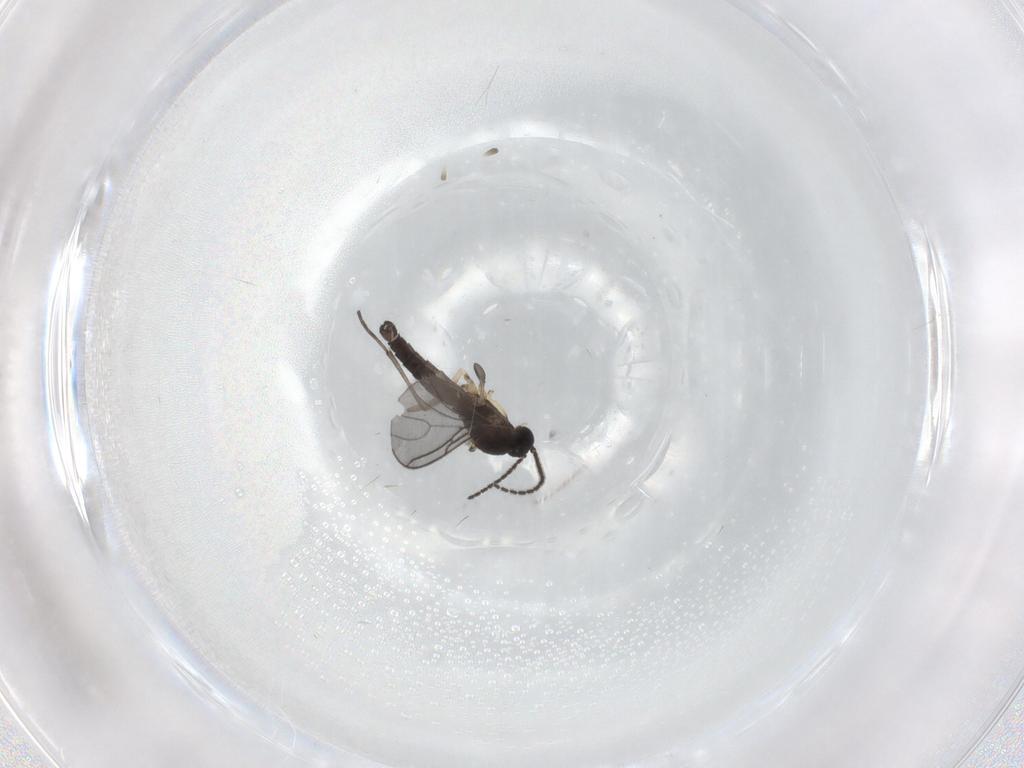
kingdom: Animalia
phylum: Arthropoda
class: Insecta
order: Diptera
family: Sciaridae
